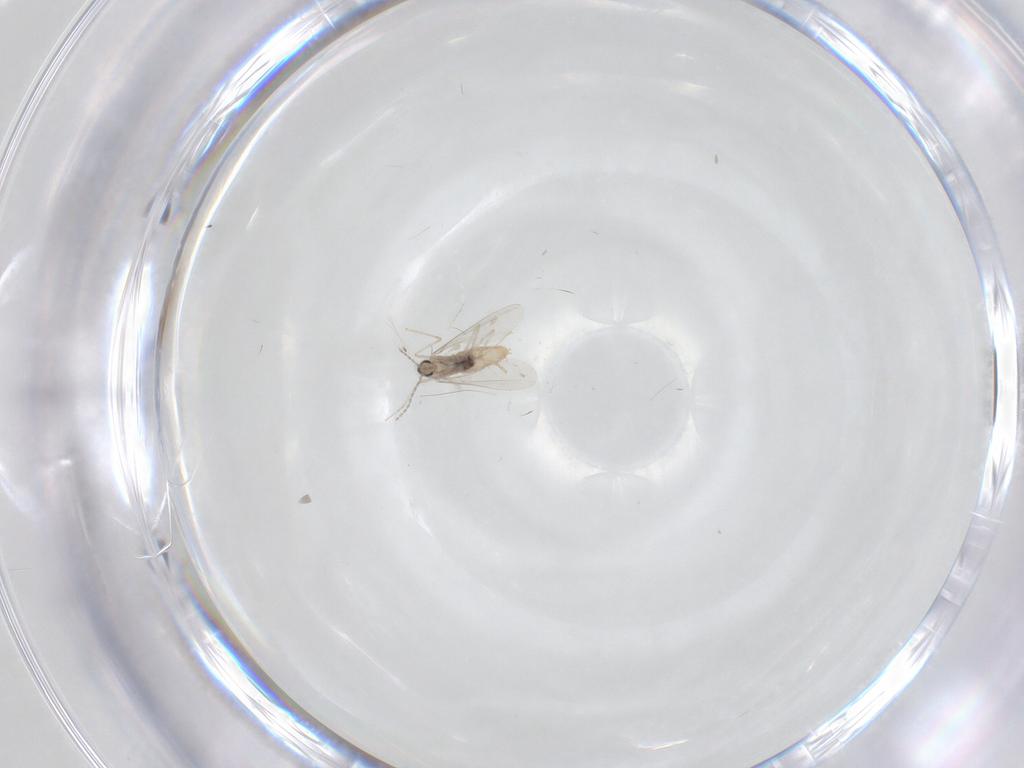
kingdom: Animalia
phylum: Arthropoda
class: Insecta
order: Diptera
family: Cecidomyiidae
